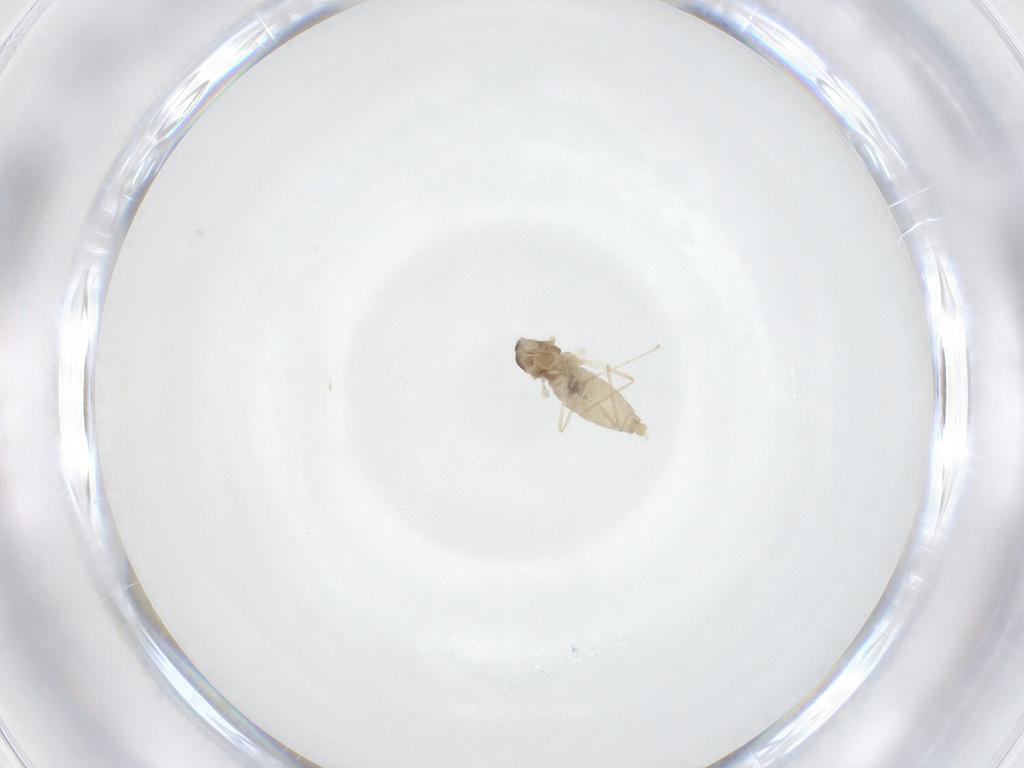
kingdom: Animalia
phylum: Arthropoda
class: Insecta
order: Diptera
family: Cecidomyiidae
